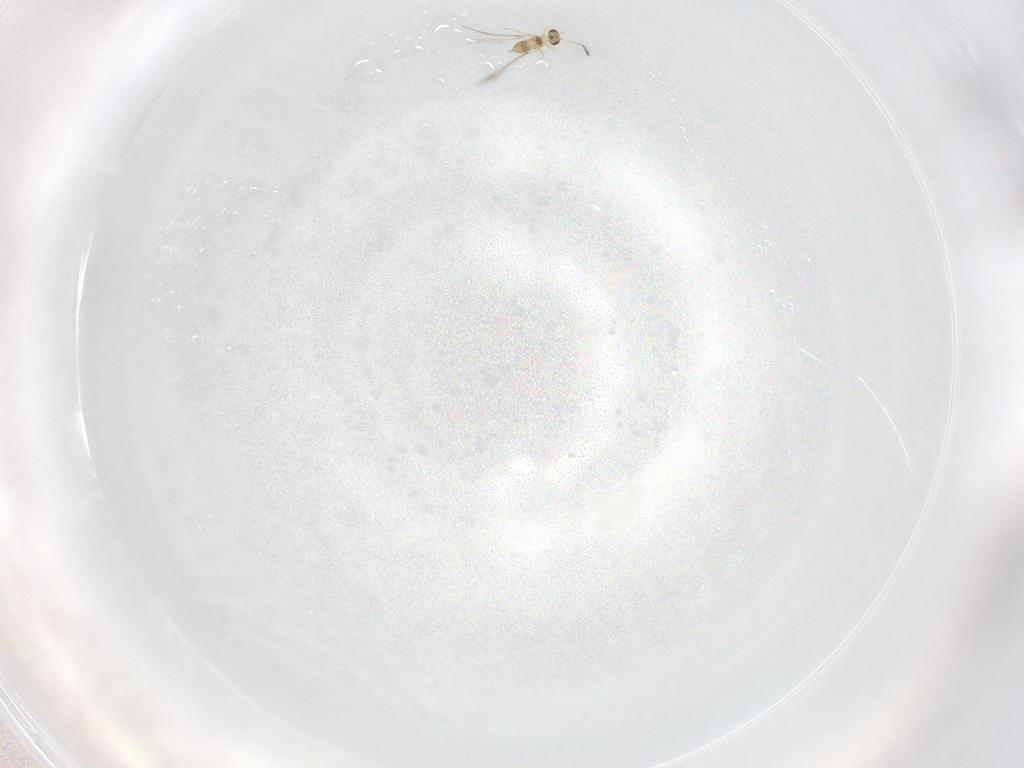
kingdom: Animalia
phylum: Arthropoda
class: Insecta
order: Hymenoptera
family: Mymaridae
